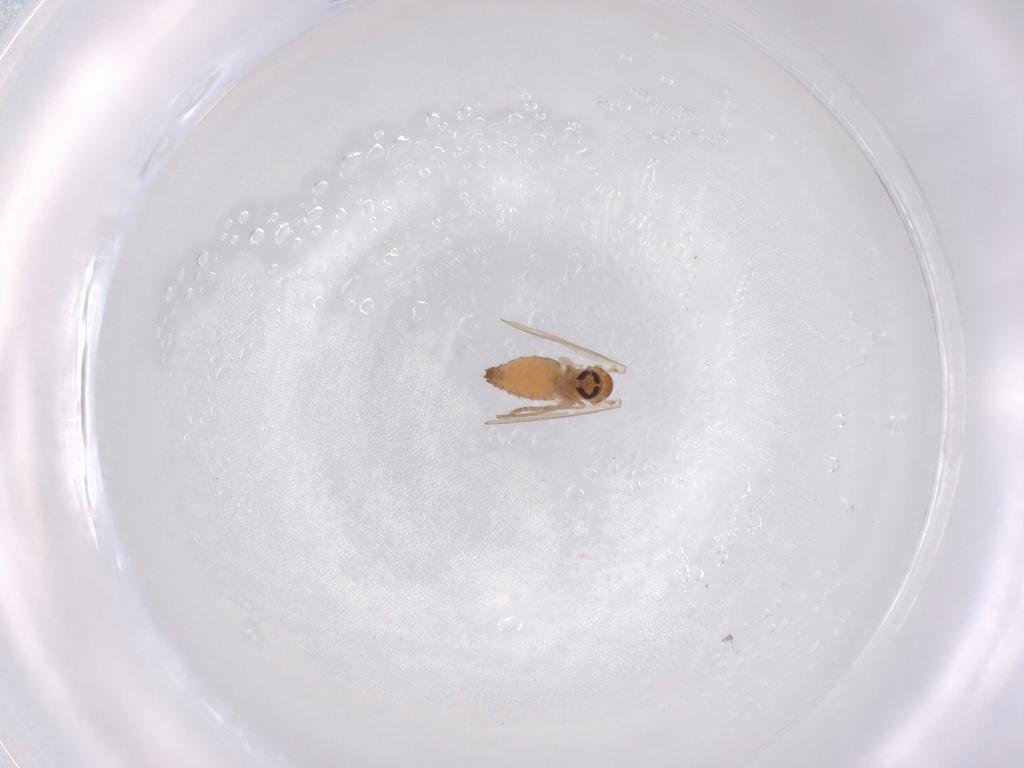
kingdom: Animalia
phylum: Arthropoda
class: Insecta
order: Diptera
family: Psychodidae
